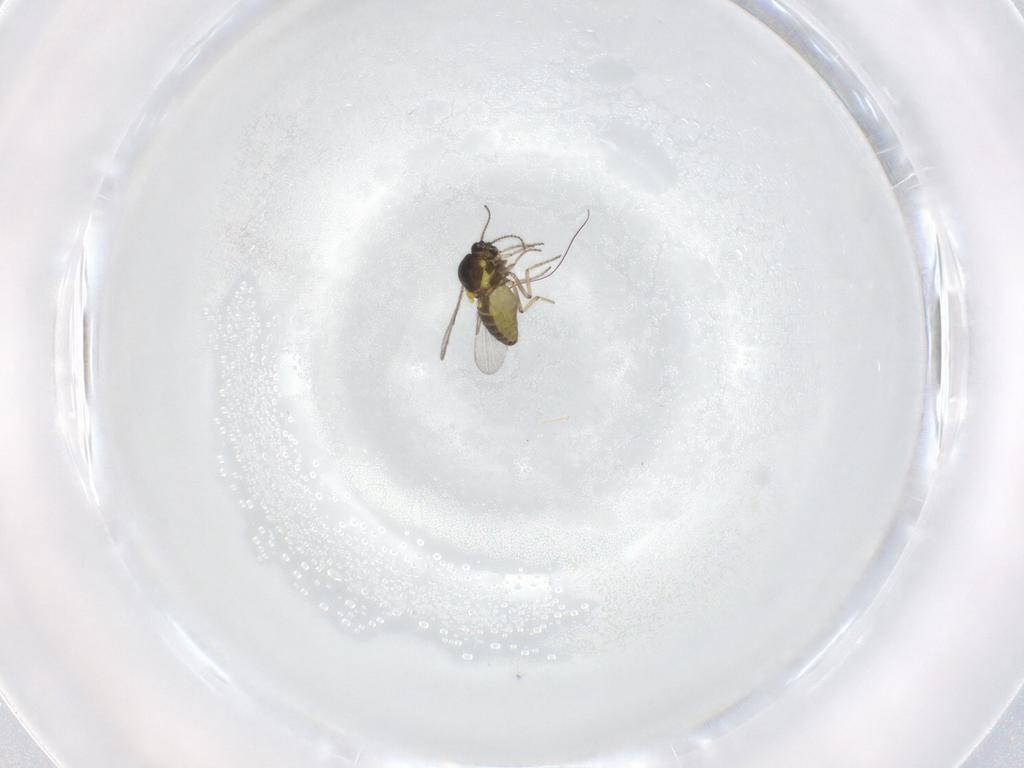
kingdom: Animalia
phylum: Arthropoda
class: Insecta
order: Diptera
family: Ceratopogonidae
